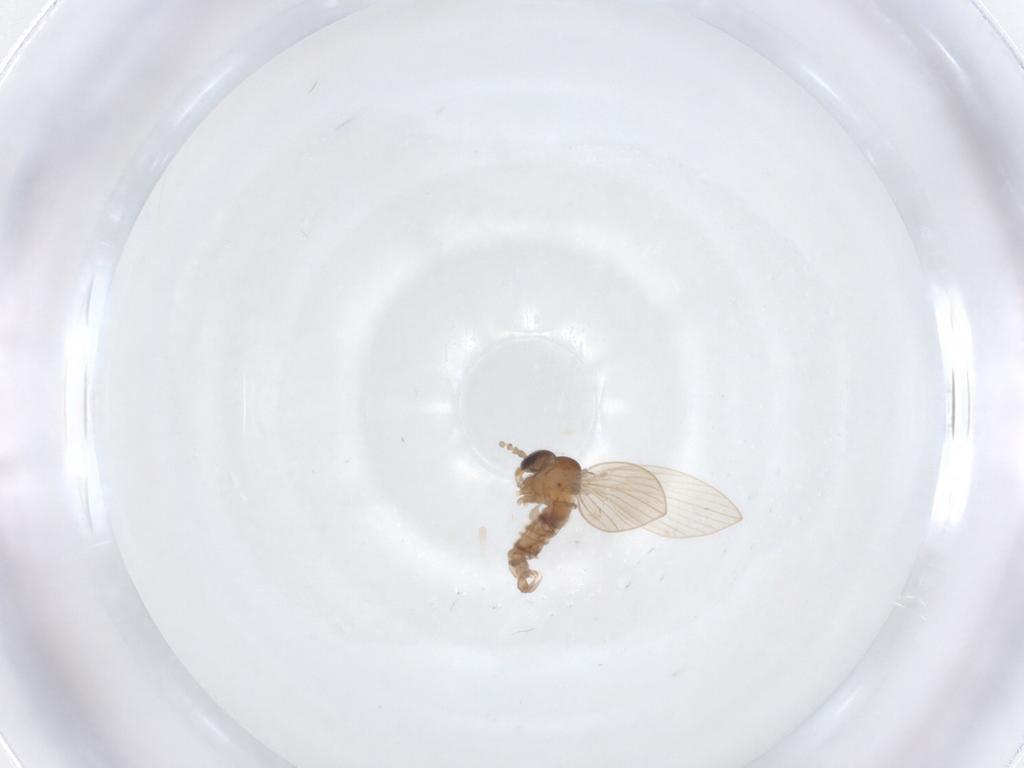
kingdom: Animalia
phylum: Arthropoda
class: Insecta
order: Diptera
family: Psychodidae
